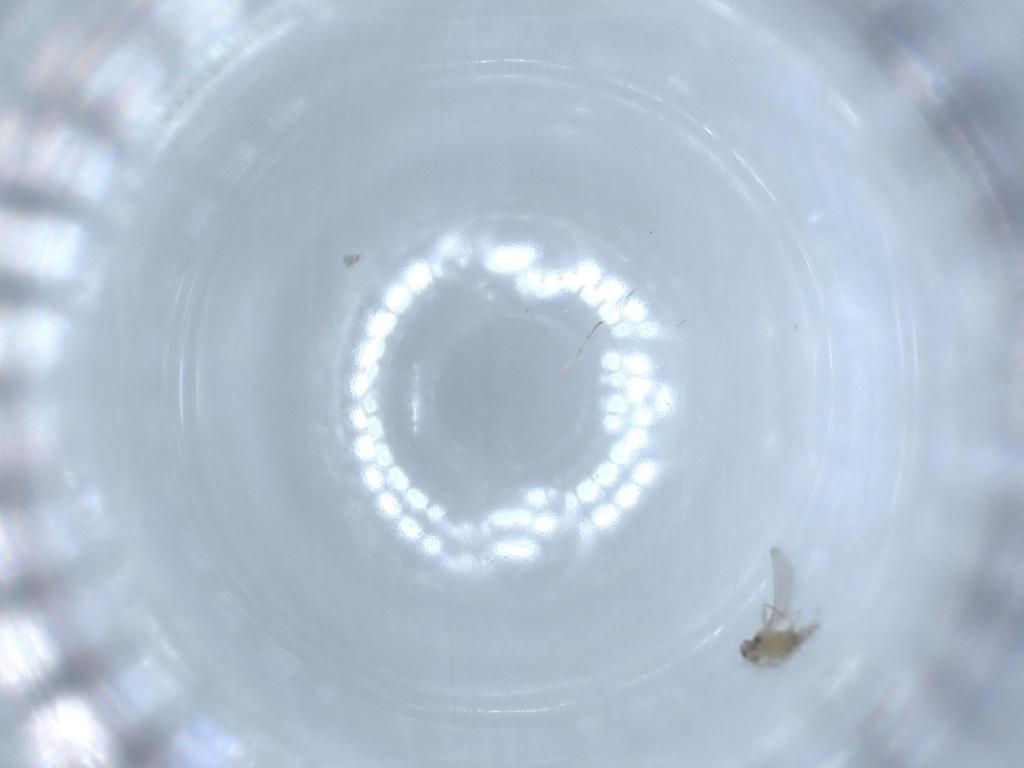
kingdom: Animalia
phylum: Arthropoda
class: Insecta
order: Diptera
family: Cecidomyiidae
